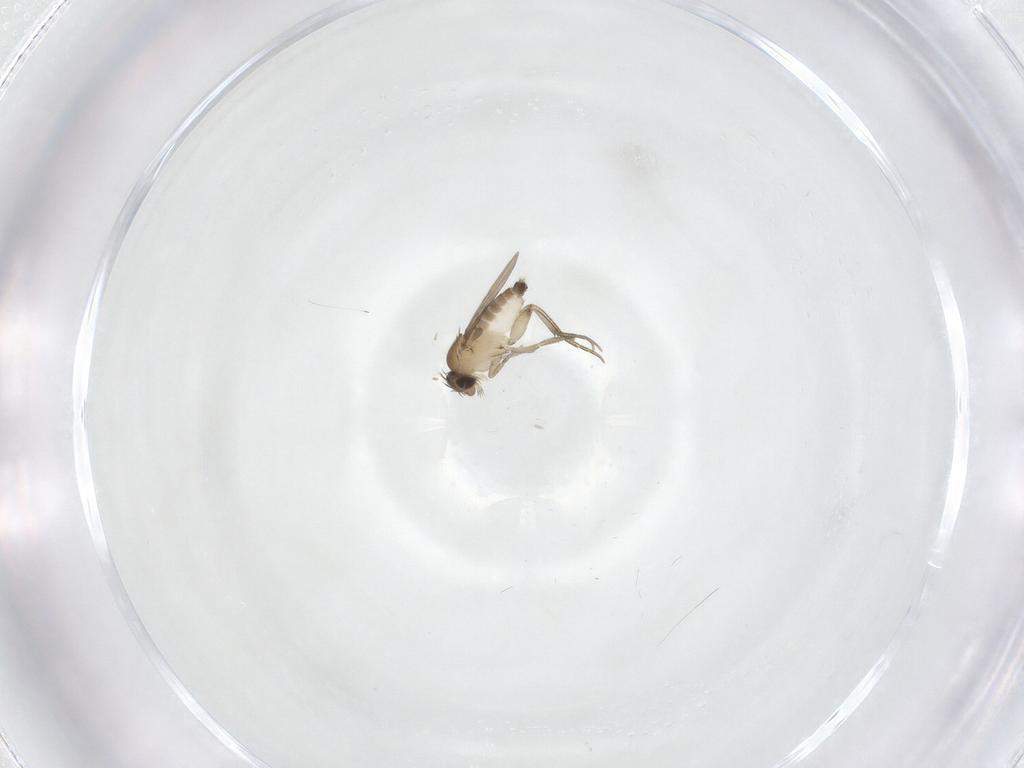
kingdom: Animalia
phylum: Arthropoda
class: Insecta
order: Diptera
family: Phoridae
